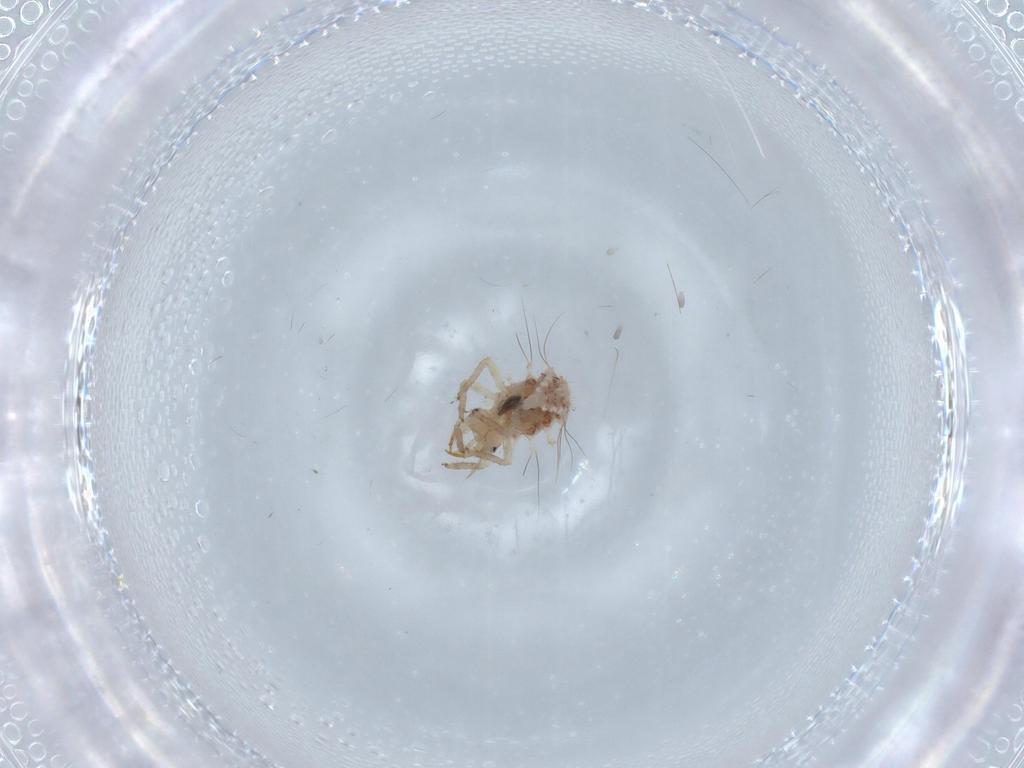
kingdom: Animalia
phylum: Arthropoda
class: Insecta
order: Neuroptera
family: Chrysopidae
